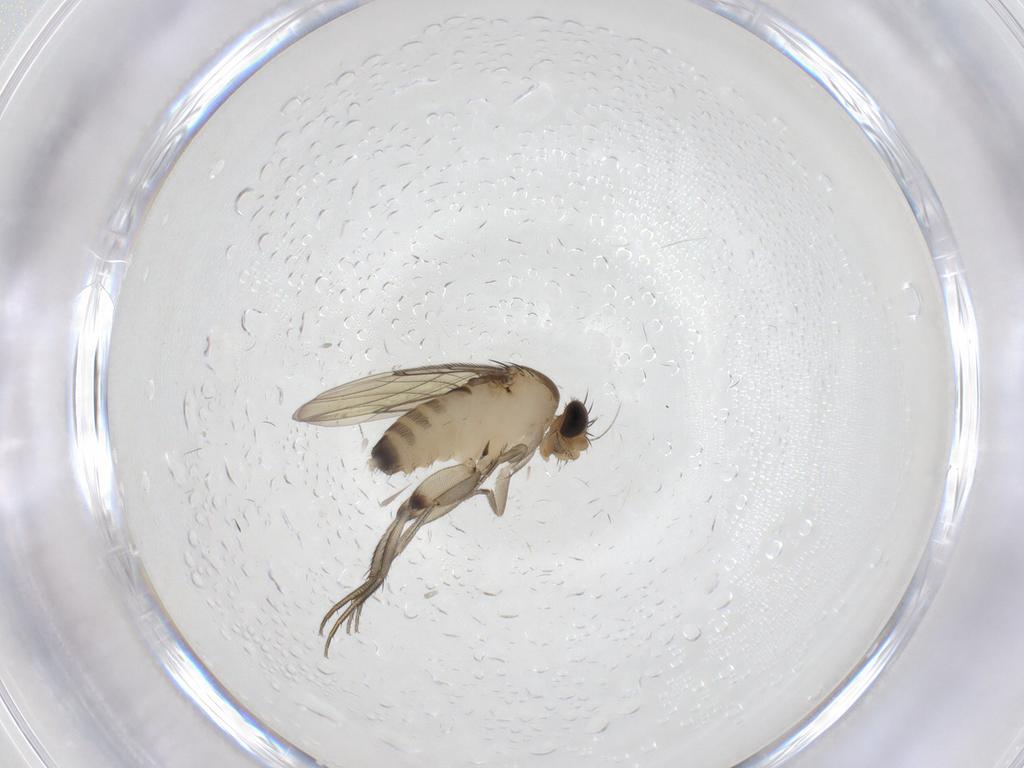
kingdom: Animalia
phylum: Arthropoda
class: Insecta
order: Diptera
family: Phoridae
